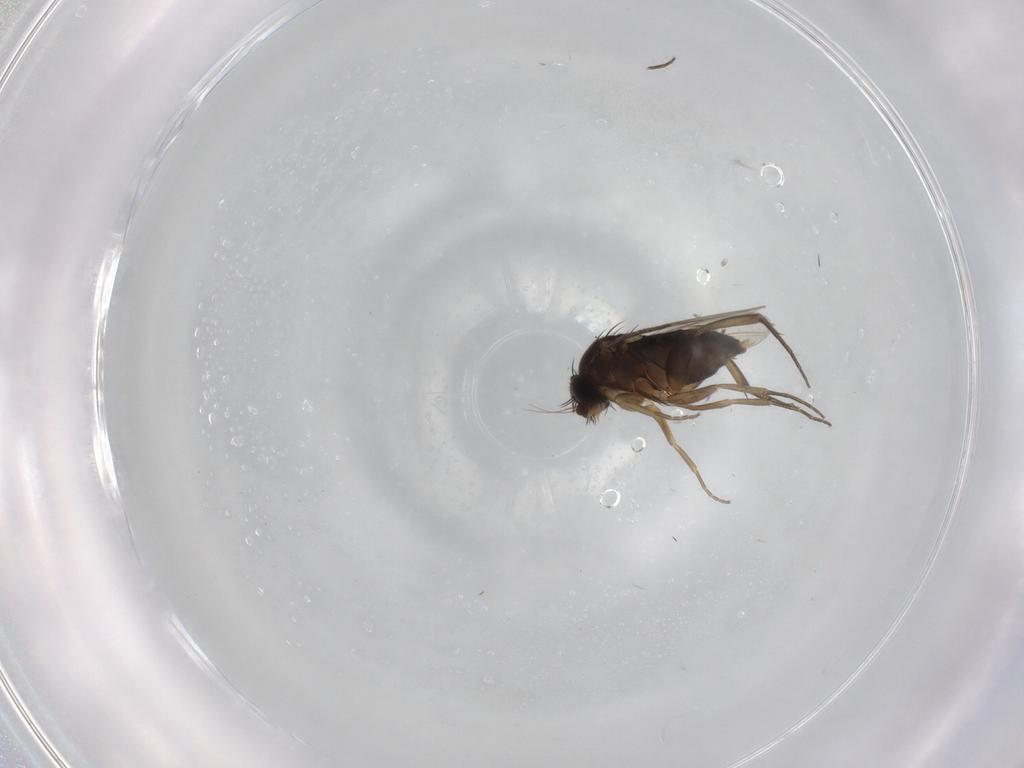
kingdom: Animalia
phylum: Arthropoda
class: Insecta
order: Diptera
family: Phoridae
